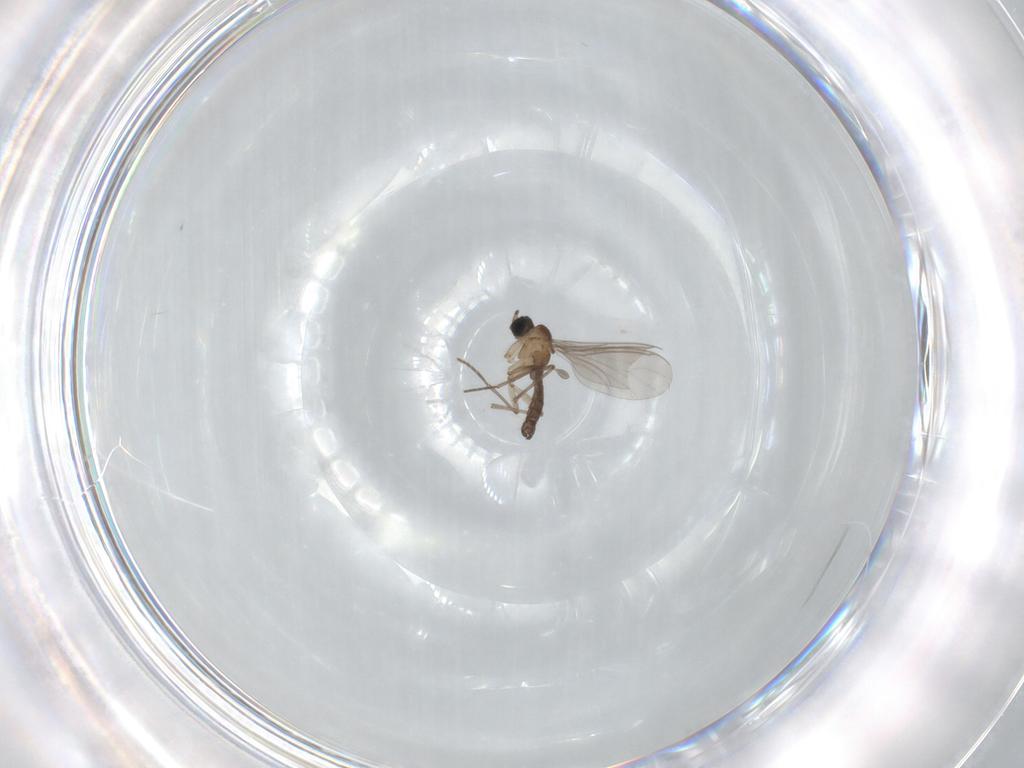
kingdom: Animalia
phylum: Arthropoda
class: Insecta
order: Diptera
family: Sciaridae
